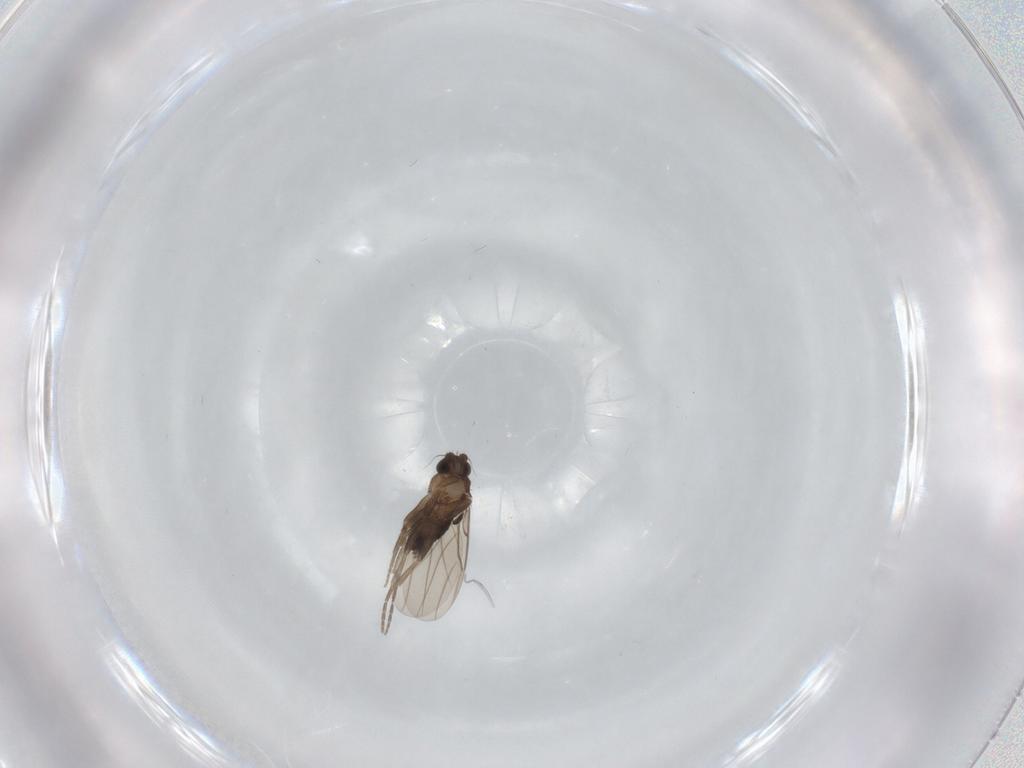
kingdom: Animalia
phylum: Arthropoda
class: Insecta
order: Diptera
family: Phoridae
